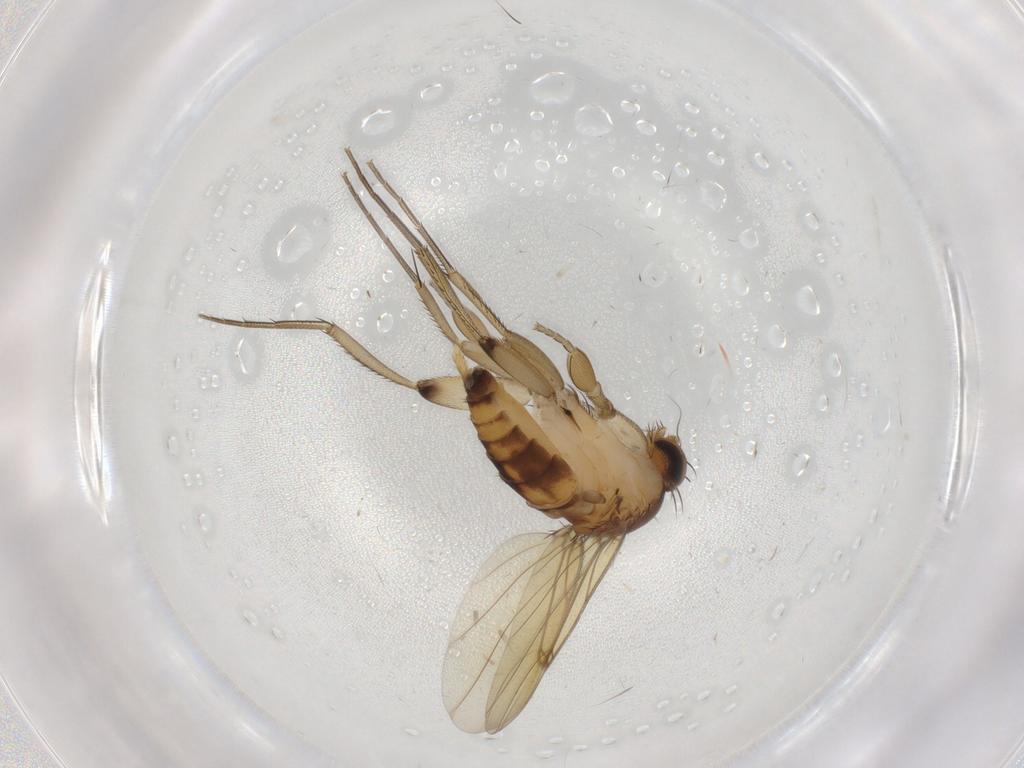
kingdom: Animalia
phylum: Arthropoda
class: Insecta
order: Diptera
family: Phoridae
